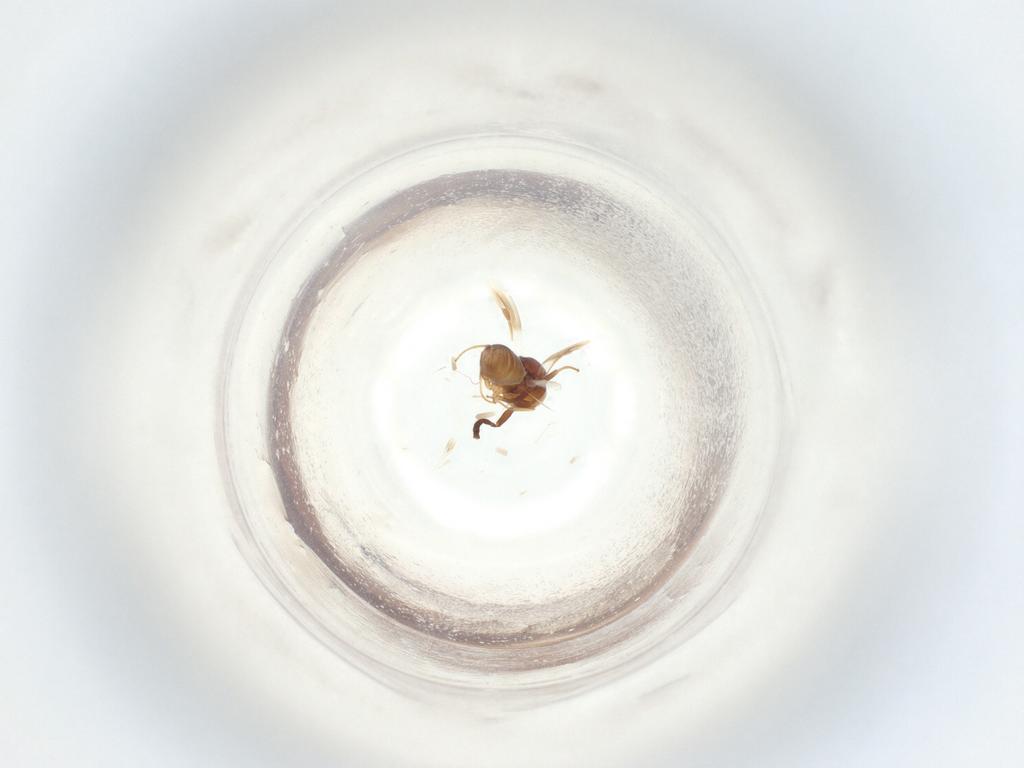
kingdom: Animalia
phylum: Arthropoda
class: Insecta
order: Hymenoptera
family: Megaspilidae
